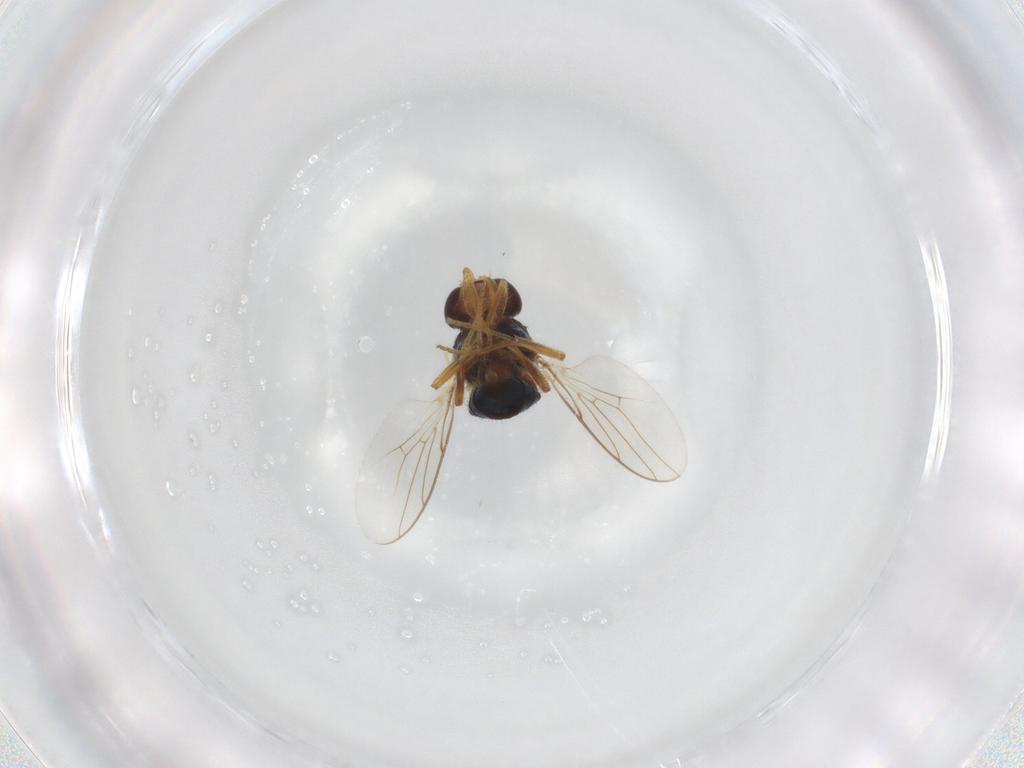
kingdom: Animalia
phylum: Arthropoda
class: Insecta
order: Diptera
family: Chloropidae
